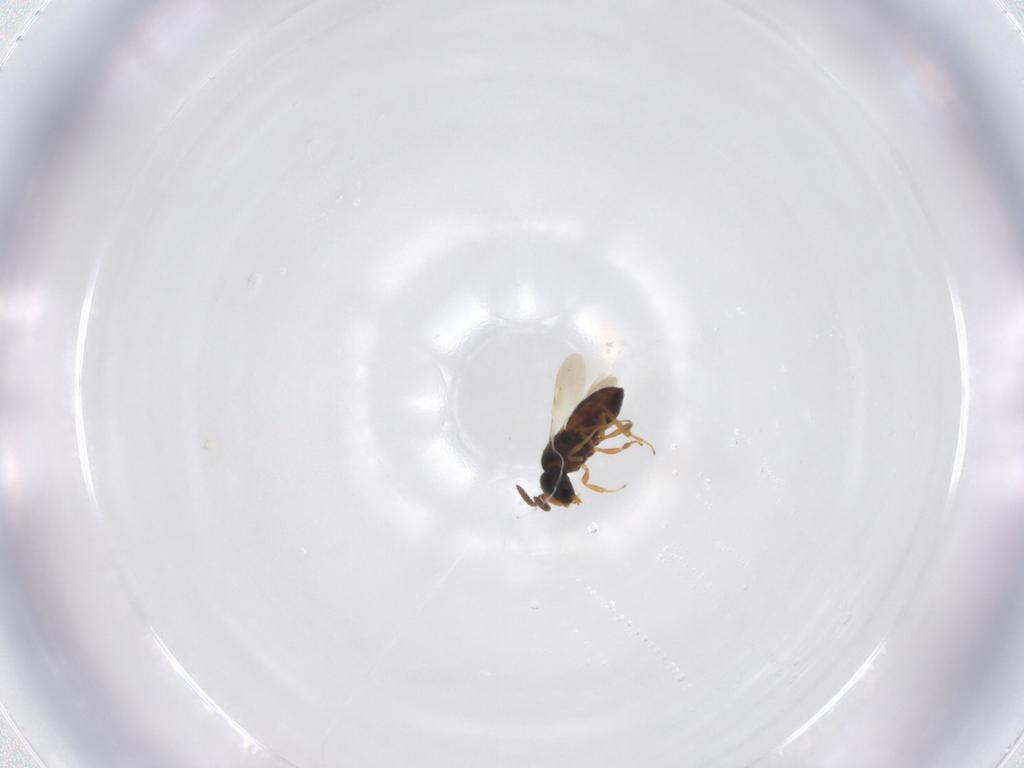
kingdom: Animalia
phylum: Arthropoda
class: Insecta
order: Hymenoptera
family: Scelionidae
